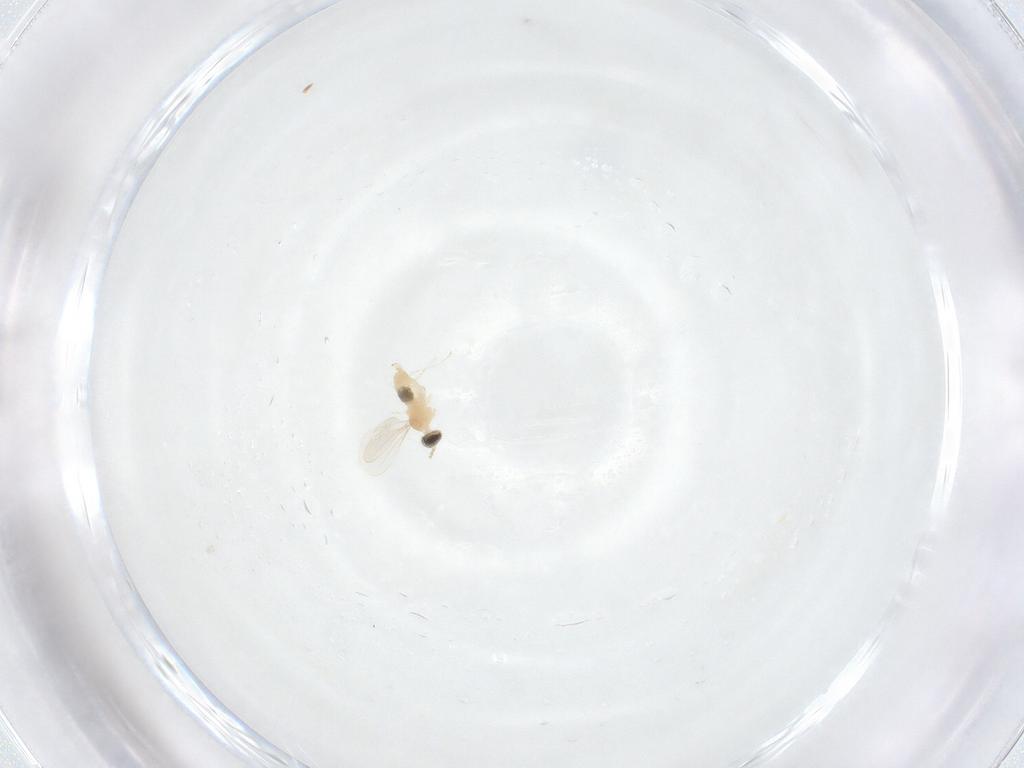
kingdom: Animalia
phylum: Arthropoda
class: Insecta
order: Diptera
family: Cecidomyiidae
